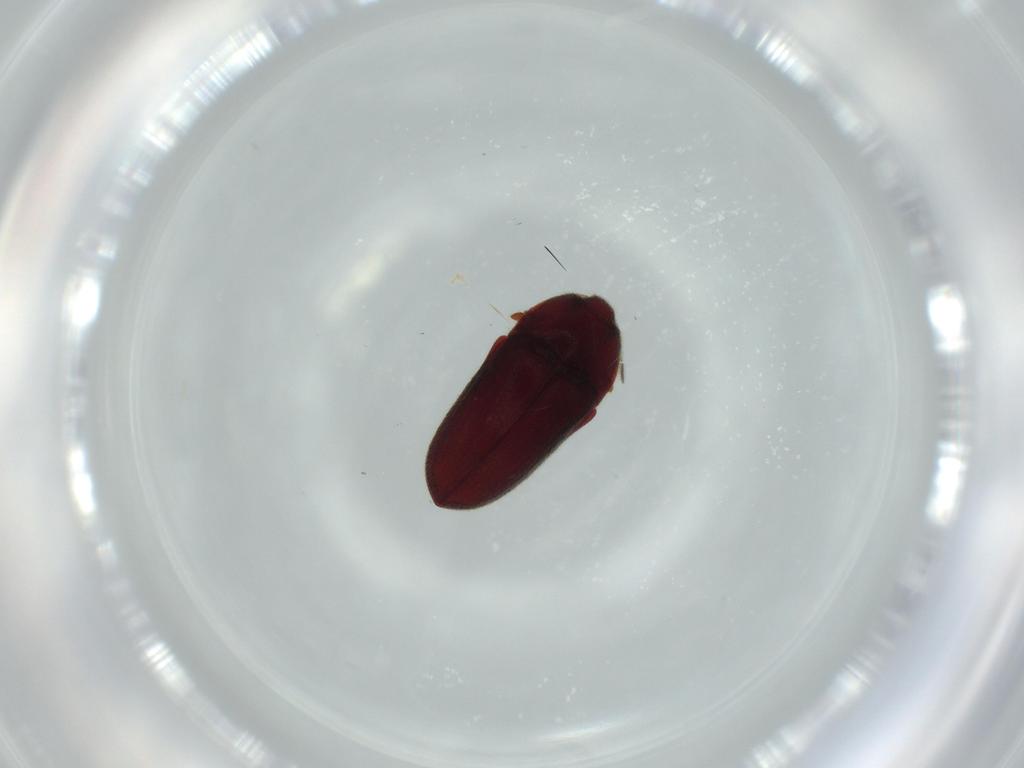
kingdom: Animalia
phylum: Arthropoda
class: Insecta
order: Coleoptera
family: Throscidae
